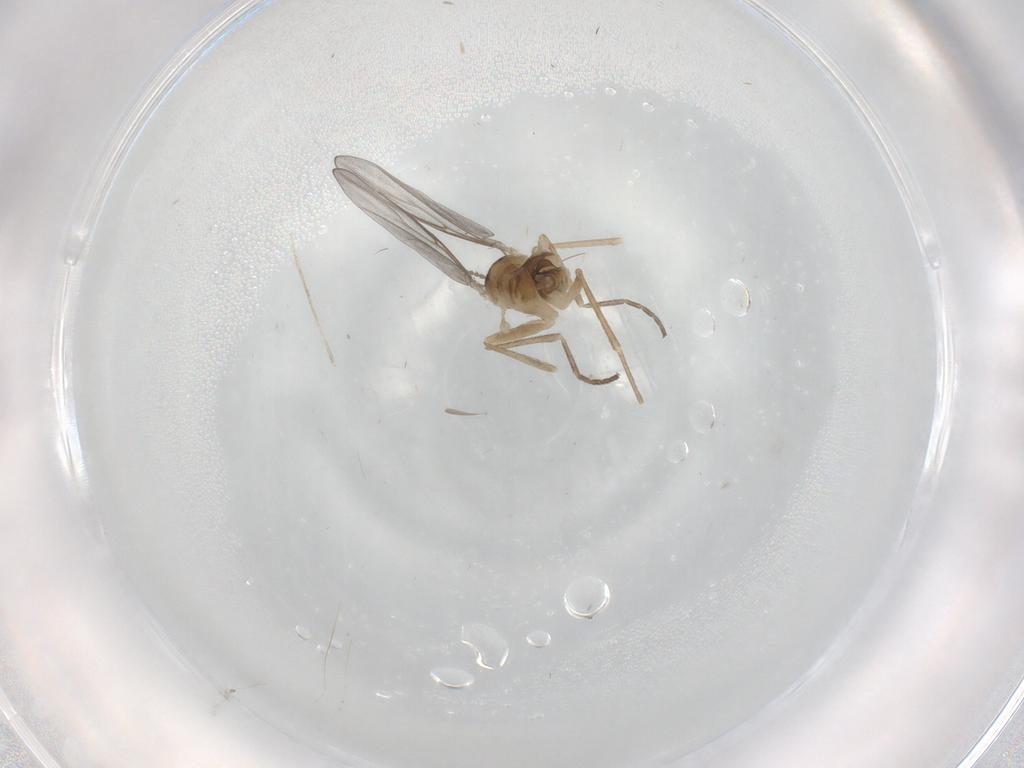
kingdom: Animalia
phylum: Arthropoda
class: Insecta
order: Diptera
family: Cecidomyiidae
